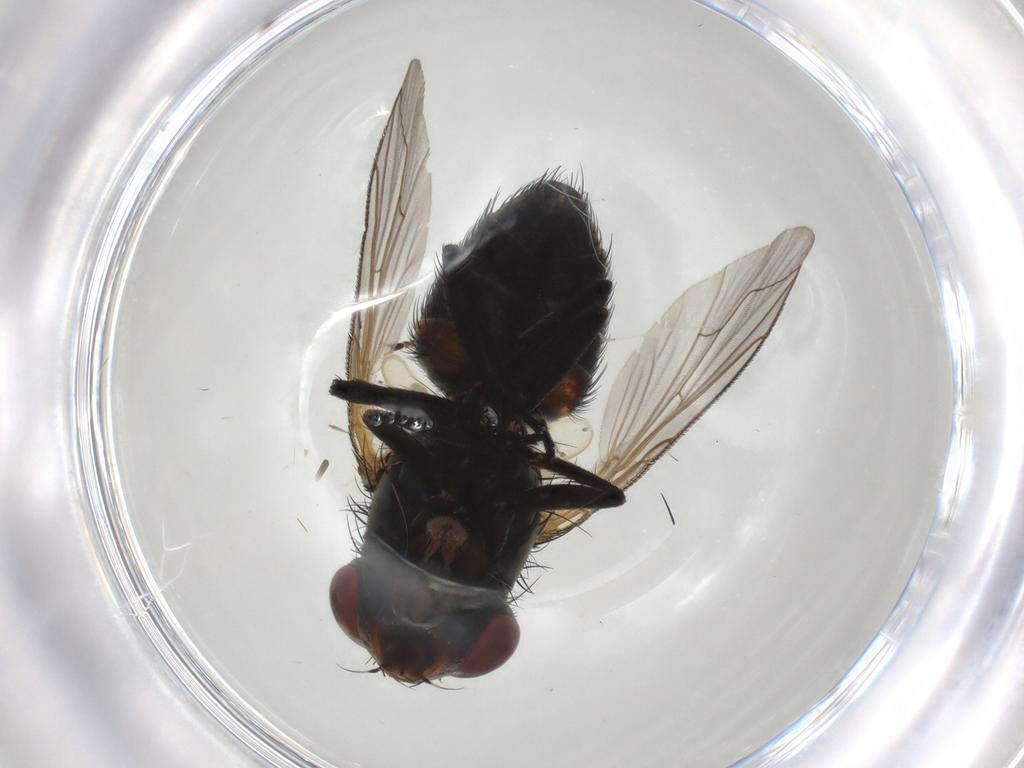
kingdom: Animalia
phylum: Arthropoda
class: Insecta
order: Diptera
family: Sarcophagidae
